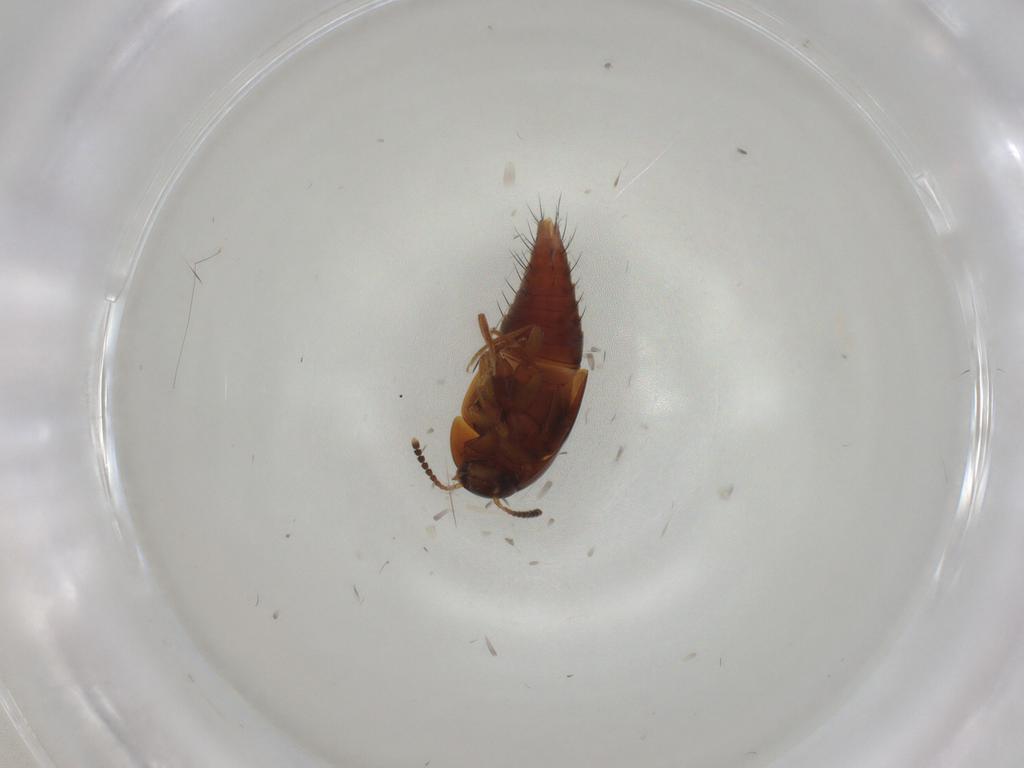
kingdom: Animalia
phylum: Arthropoda
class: Insecta
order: Coleoptera
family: Staphylinidae
